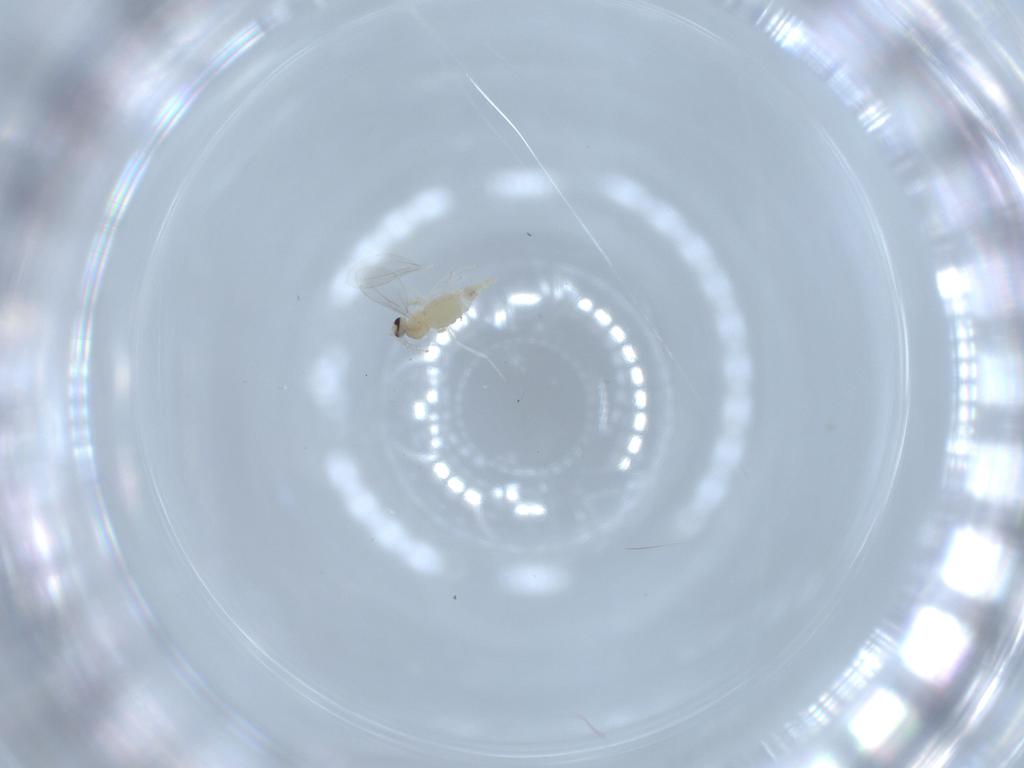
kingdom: Animalia
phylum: Arthropoda
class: Insecta
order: Diptera
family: Cecidomyiidae
